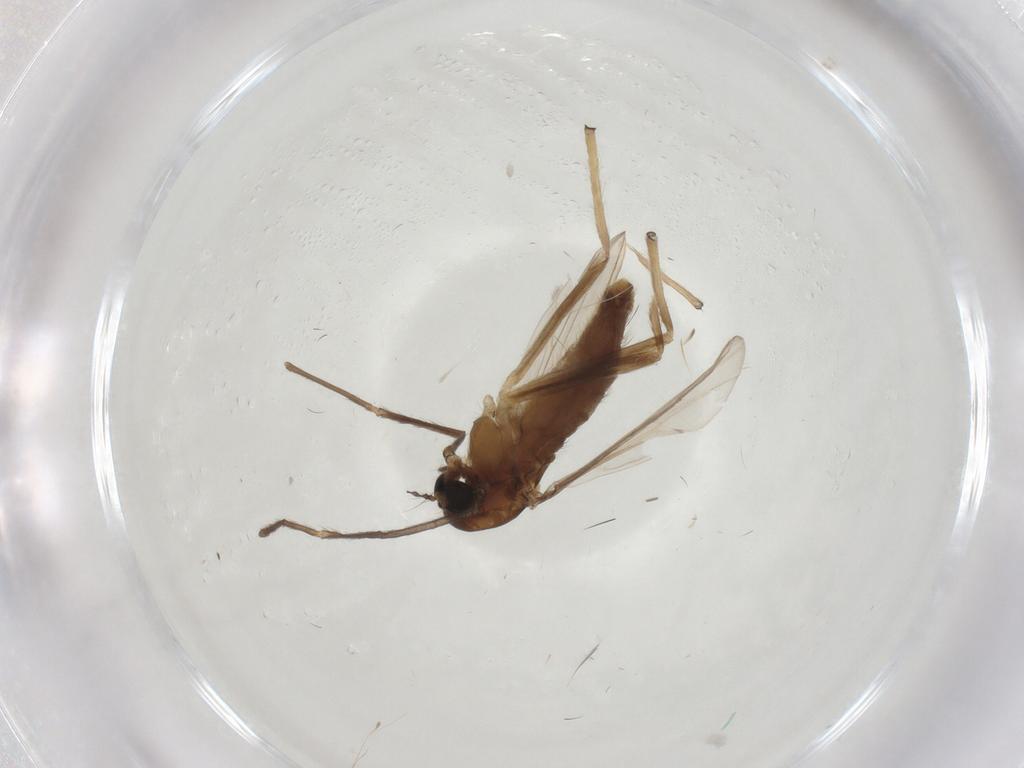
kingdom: Animalia
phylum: Arthropoda
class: Insecta
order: Diptera
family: Chironomidae
